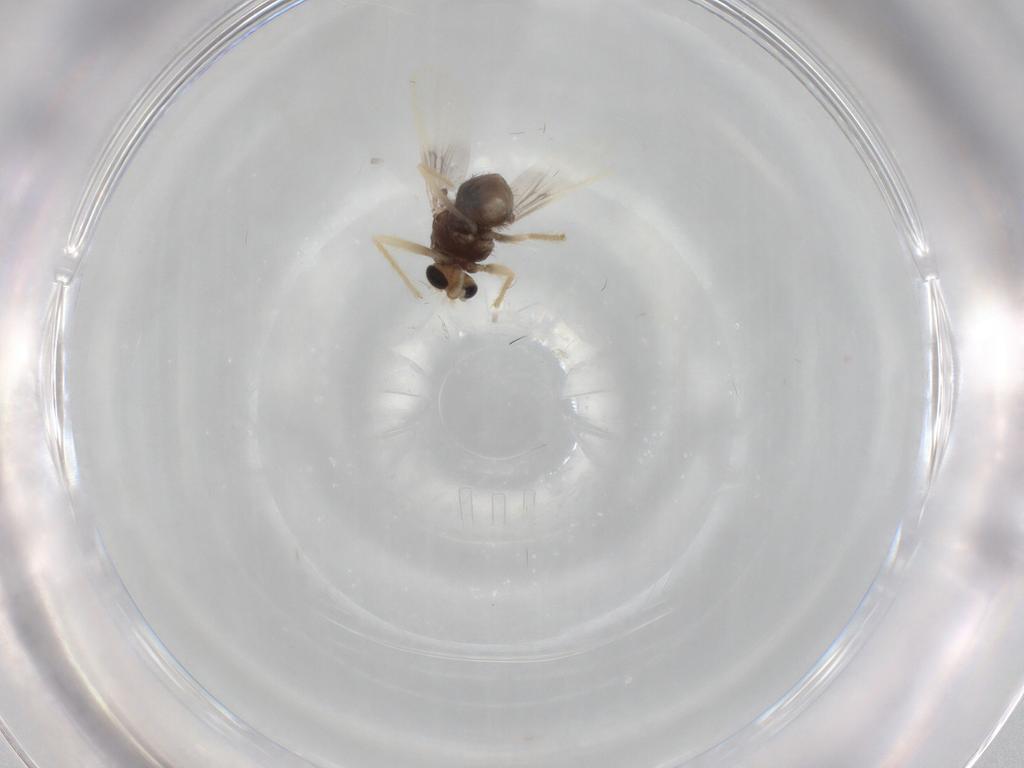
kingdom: Animalia
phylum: Arthropoda
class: Insecta
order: Diptera
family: Chironomidae
